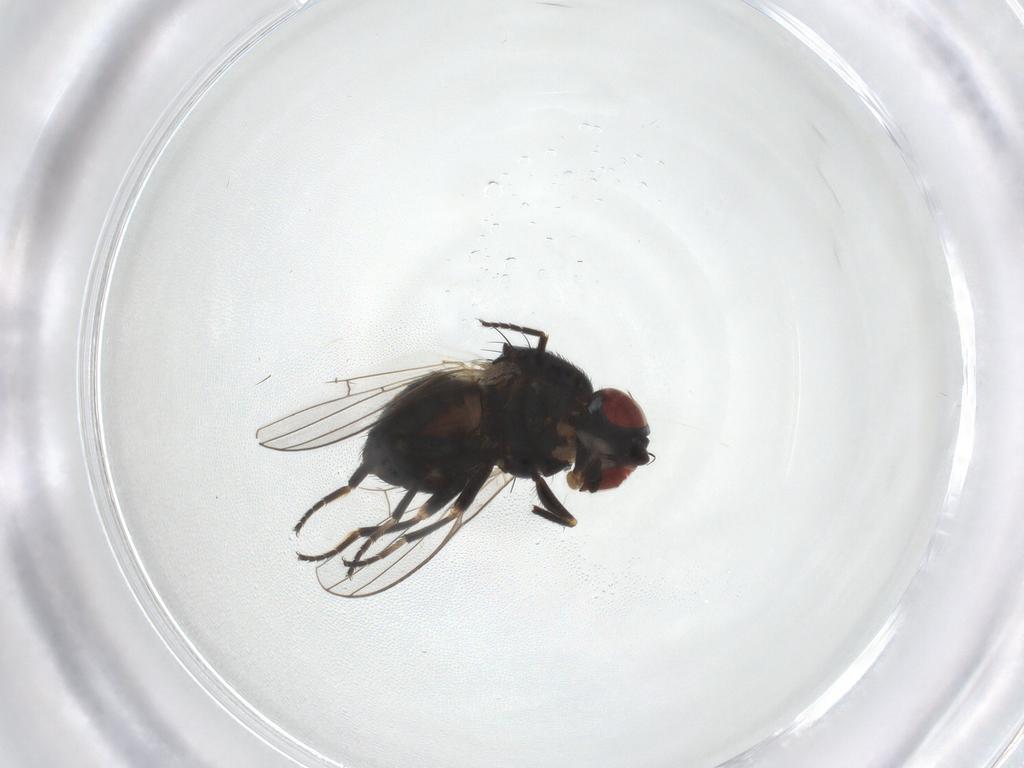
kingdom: Animalia
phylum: Arthropoda
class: Insecta
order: Diptera
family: Chamaemyiidae
